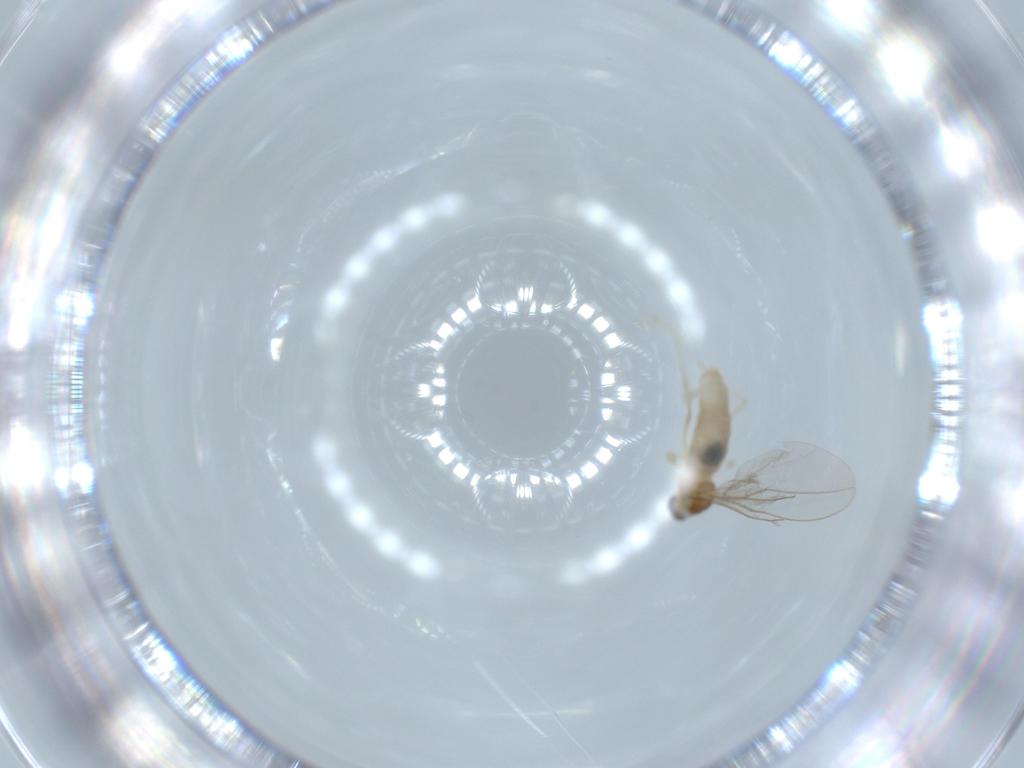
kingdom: Animalia
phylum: Arthropoda
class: Insecta
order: Diptera
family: Cecidomyiidae
